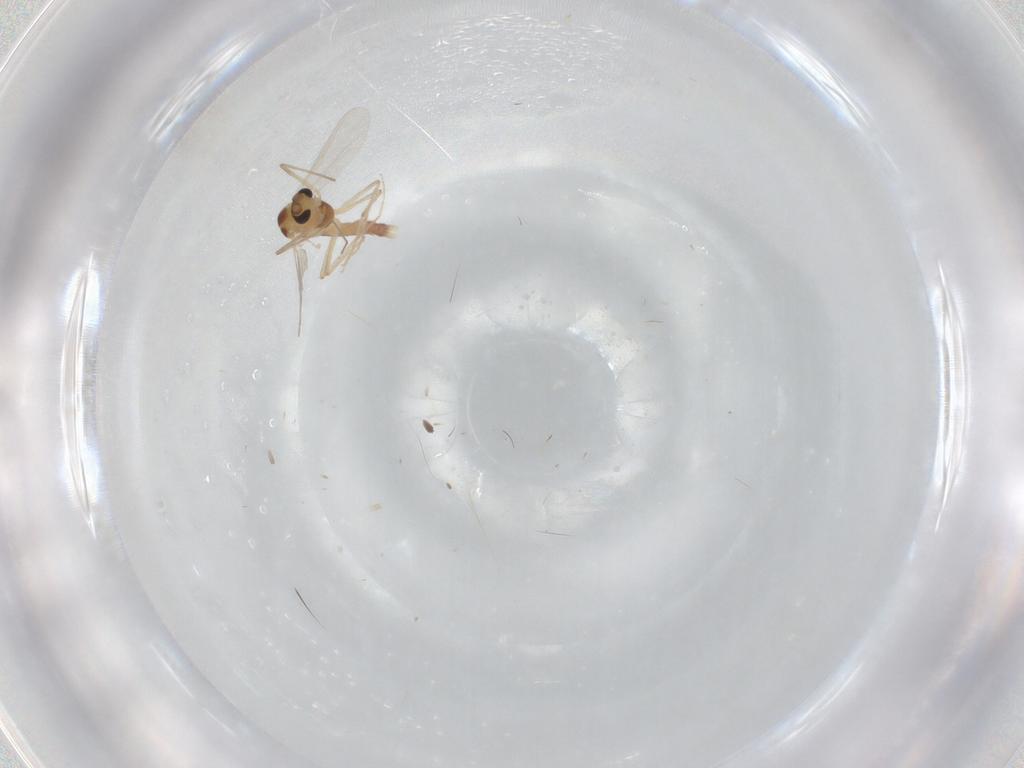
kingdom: Animalia
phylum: Arthropoda
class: Insecta
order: Diptera
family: Chironomidae
